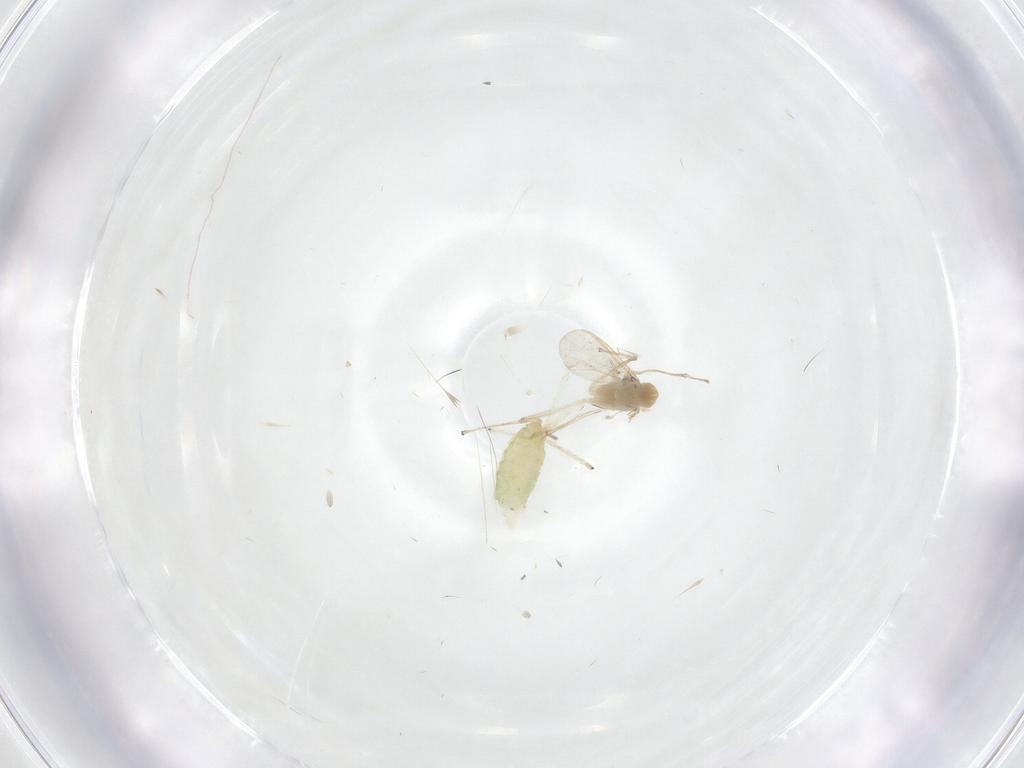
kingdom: Animalia
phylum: Arthropoda
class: Insecta
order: Diptera
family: Chironomidae
